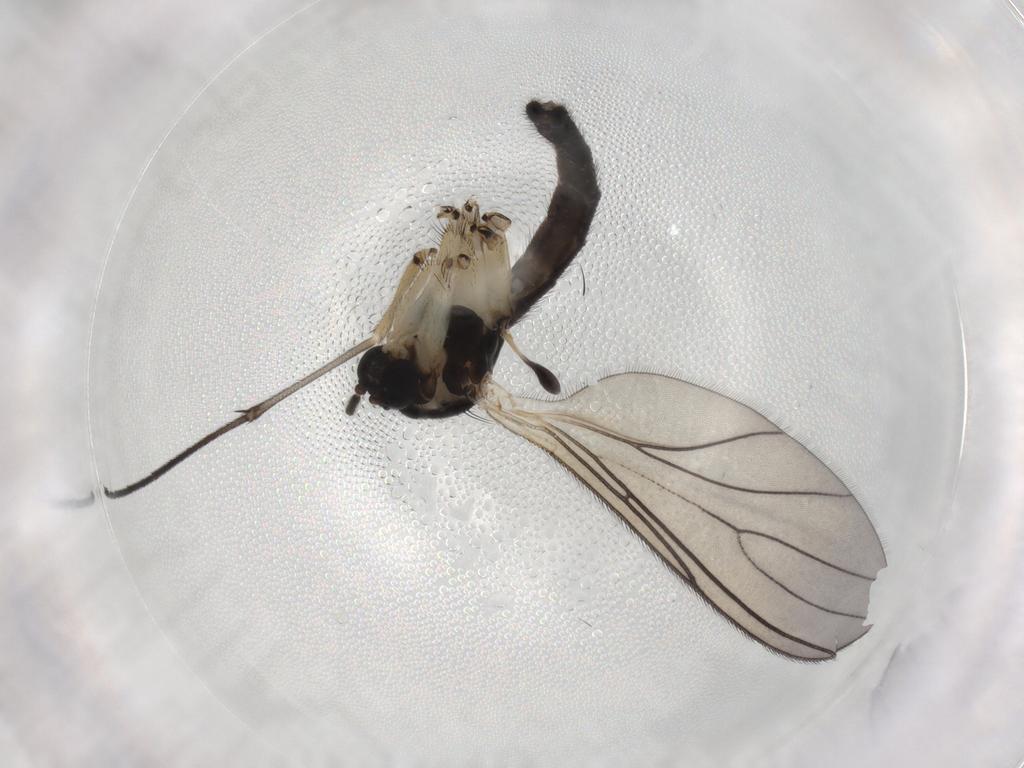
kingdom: Animalia
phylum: Arthropoda
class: Insecta
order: Diptera
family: Sciaridae
